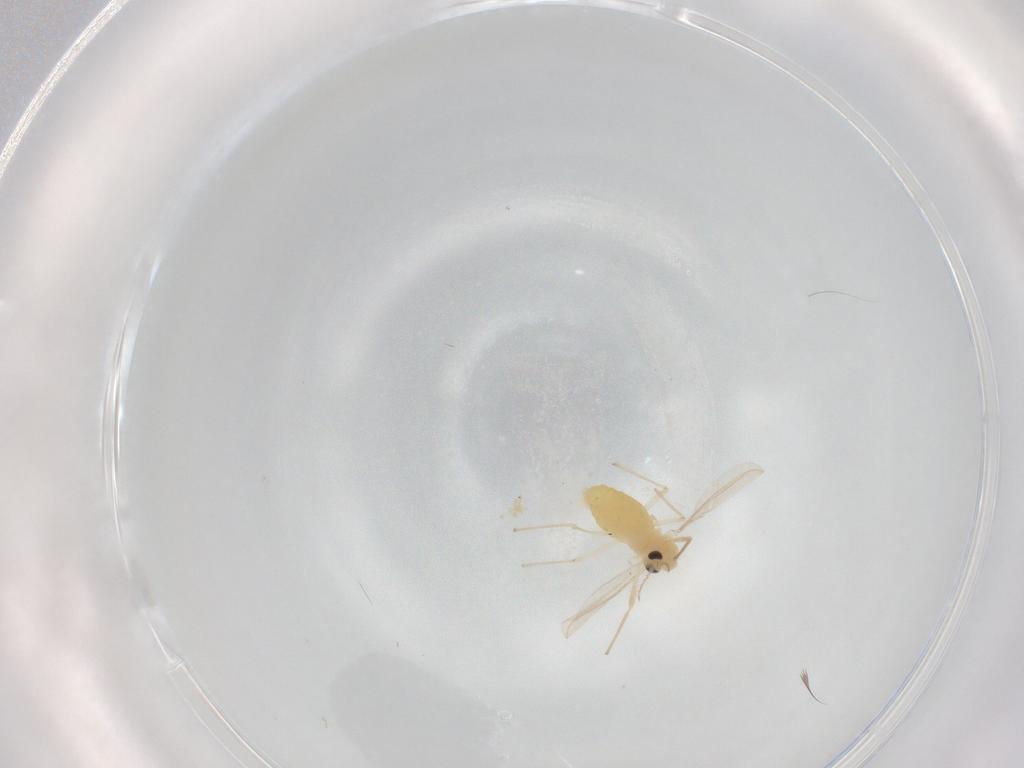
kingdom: Animalia
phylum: Arthropoda
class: Insecta
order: Diptera
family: Chironomidae
